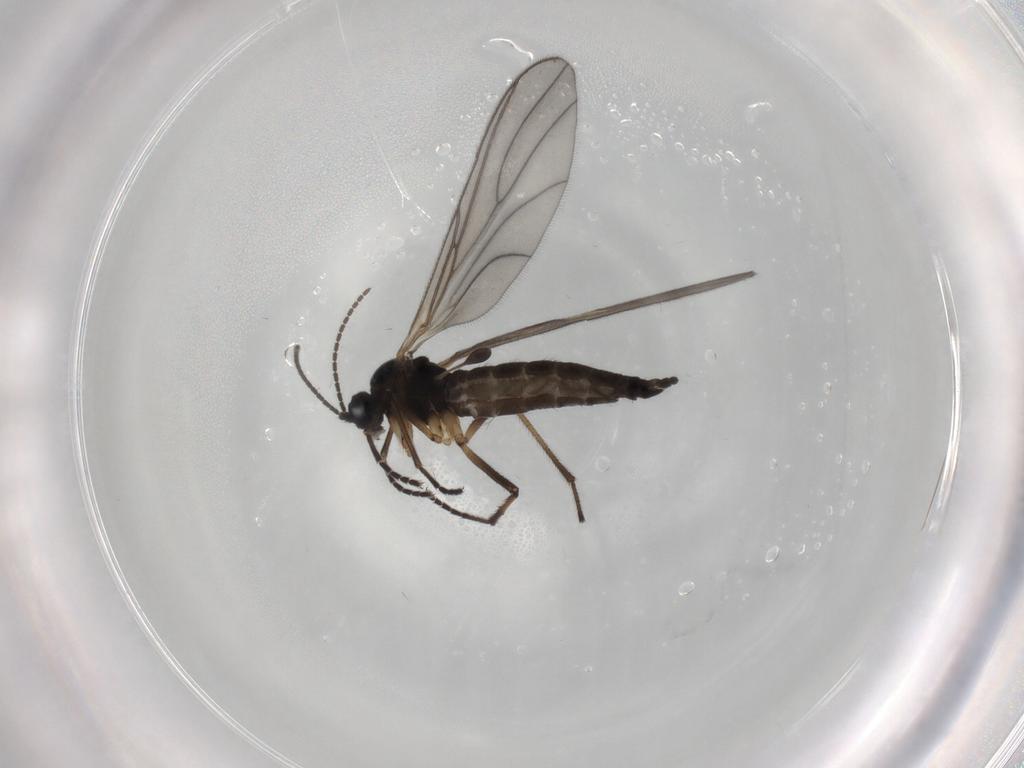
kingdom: Animalia
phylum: Arthropoda
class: Insecta
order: Diptera
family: Sciaridae
